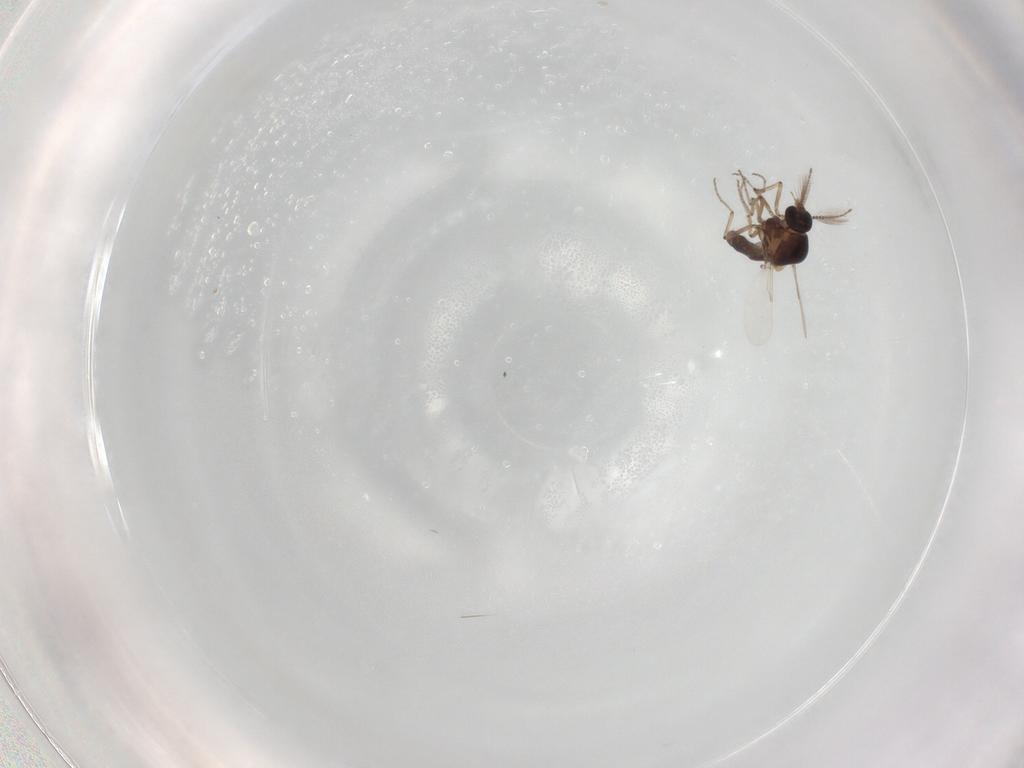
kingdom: Animalia
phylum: Arthropoda
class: Insecta
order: Diptera
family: Ceratopogonidae
